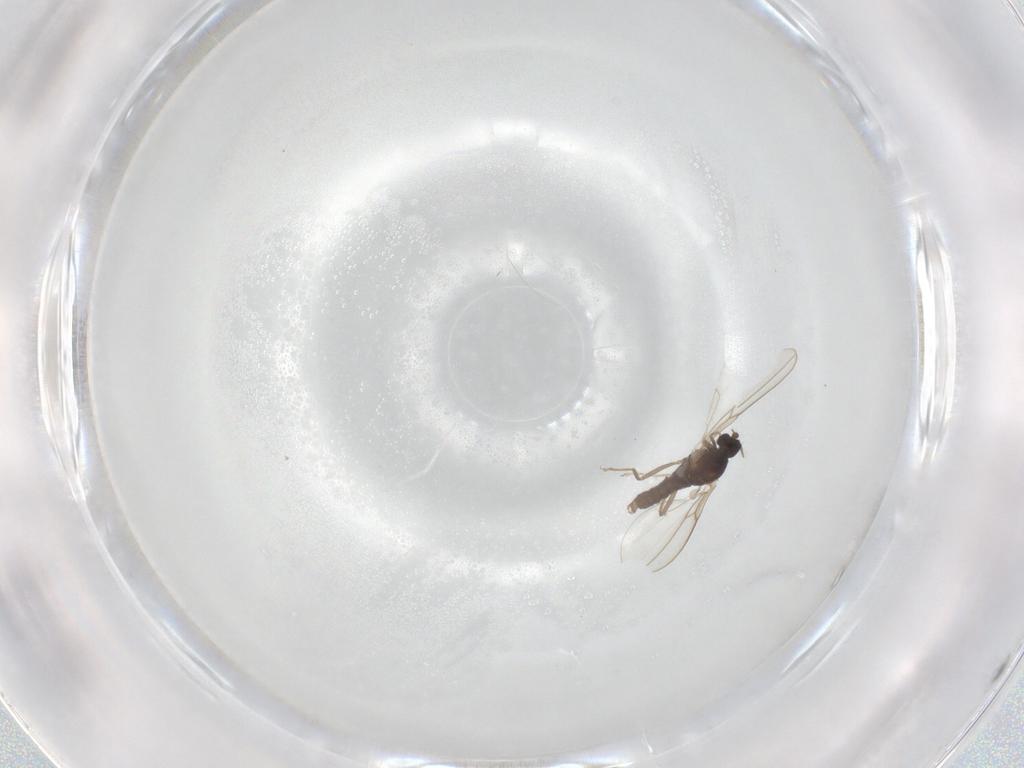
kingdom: Animalia
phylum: Arthropoda
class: Insecta
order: Diptera
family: Cecidomyiidae
